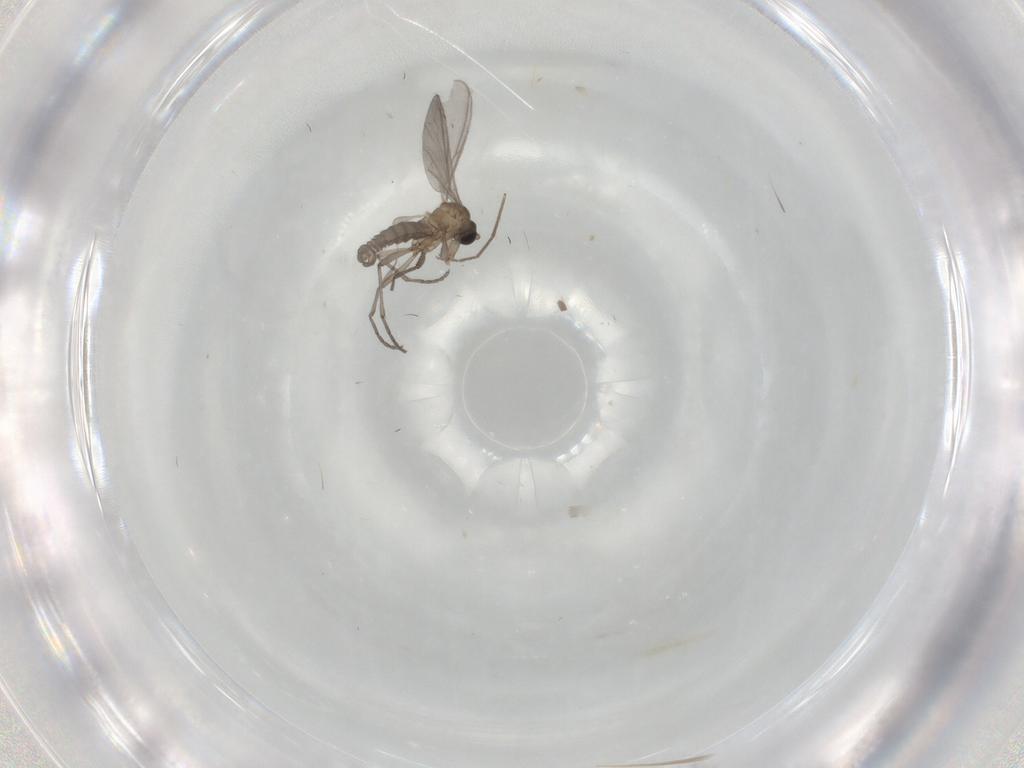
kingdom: Animalia
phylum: Arthropoda
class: Insecta
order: Diptera
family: Sciaridae
